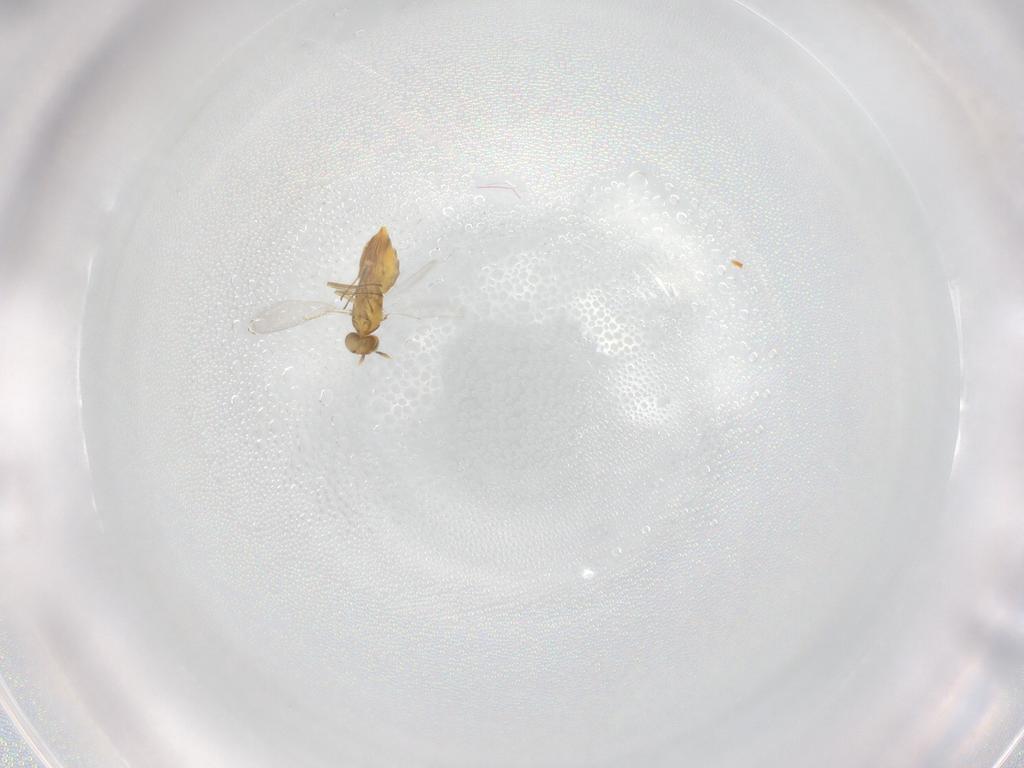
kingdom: Animalia
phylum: Arthropoda
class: Insecta
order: Hymenoptera
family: Aphelinidae
